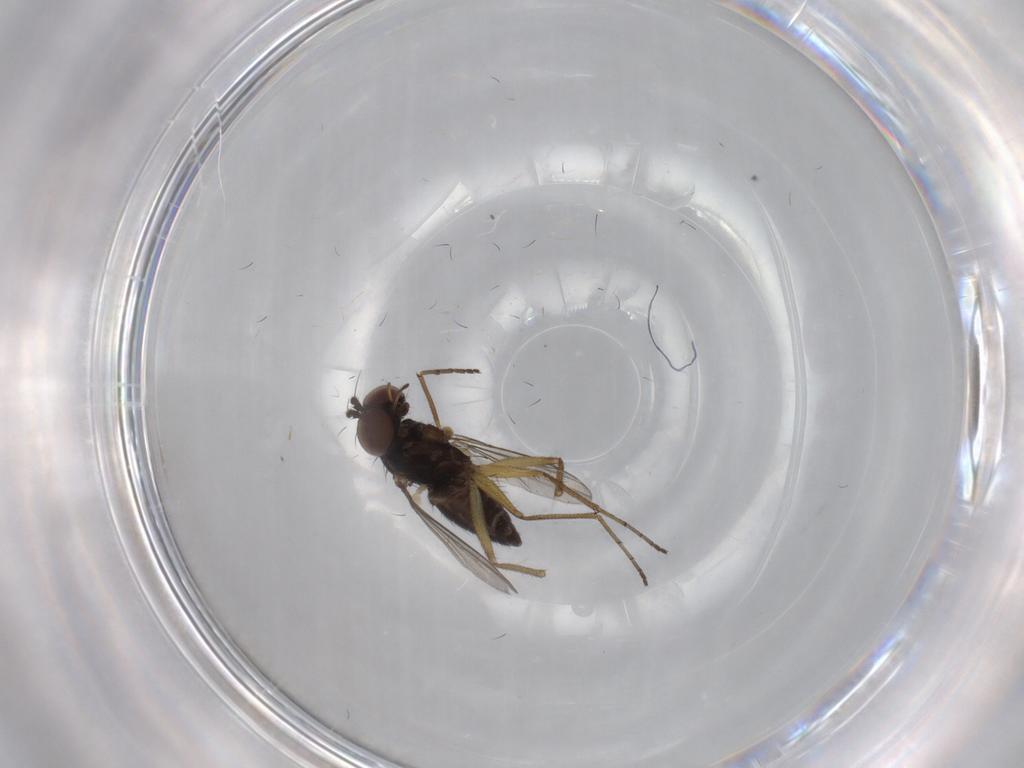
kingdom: Animalia
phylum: Arthropoda
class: Insecta
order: Diptera
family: Dolichopodidae
